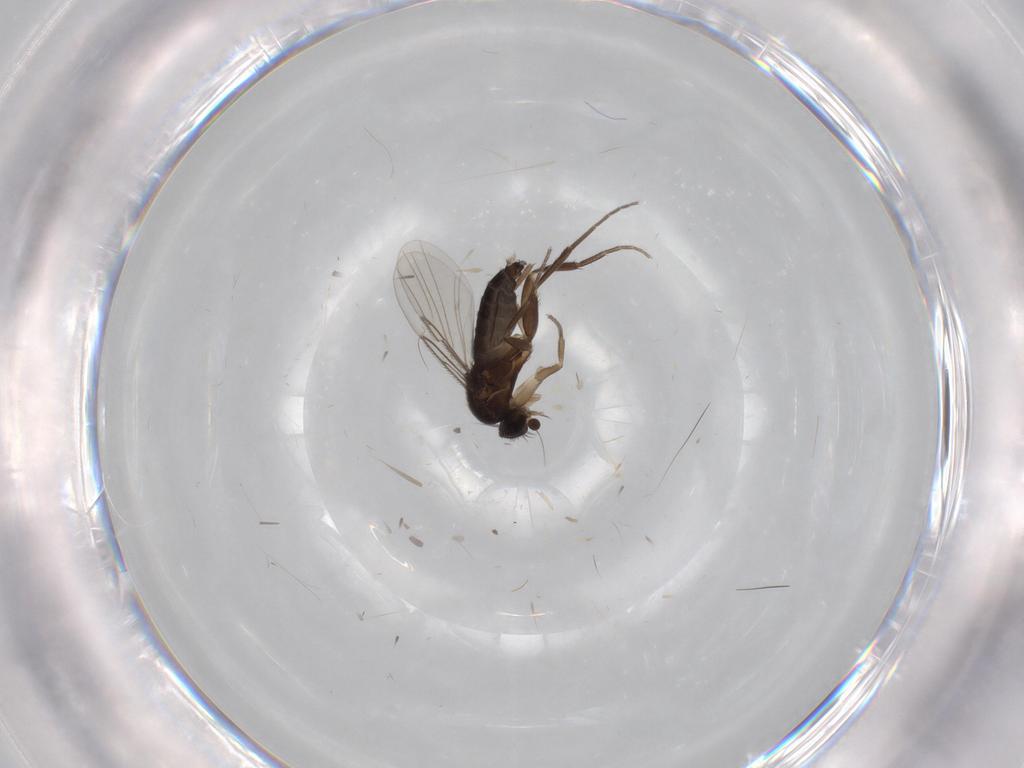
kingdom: Animalia
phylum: Arthropoda
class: Insecta
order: Diptera
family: Phoridae
